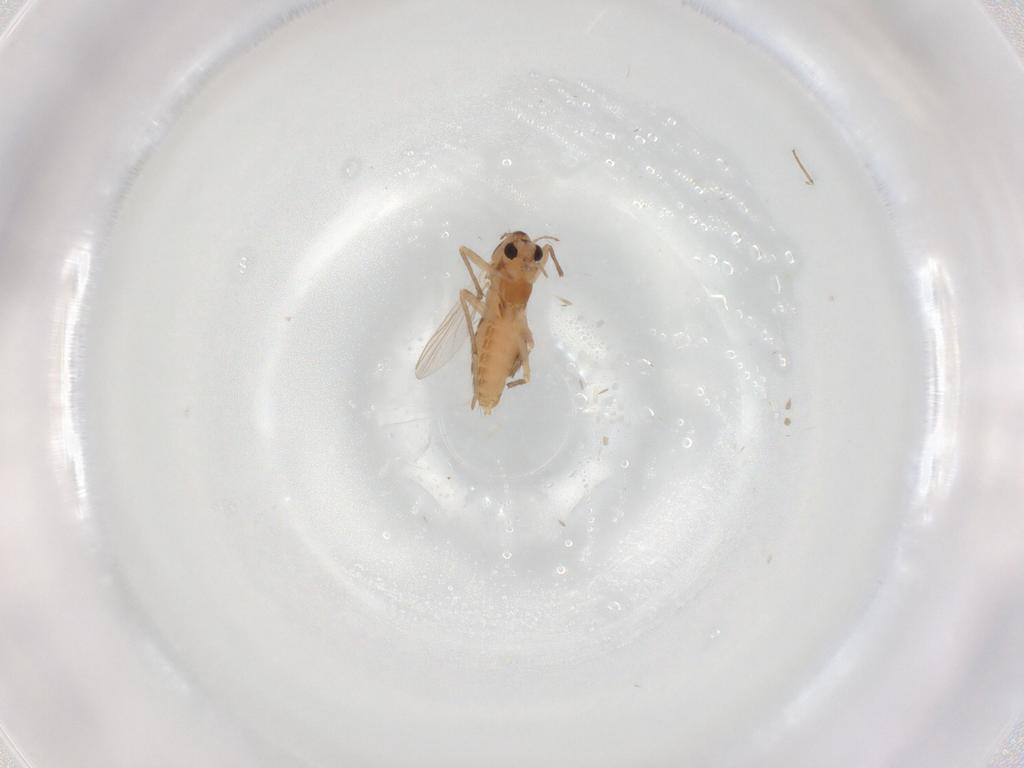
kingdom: Animalia
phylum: Arthropoda
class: Insecta
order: Diptera
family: Chironomidae
